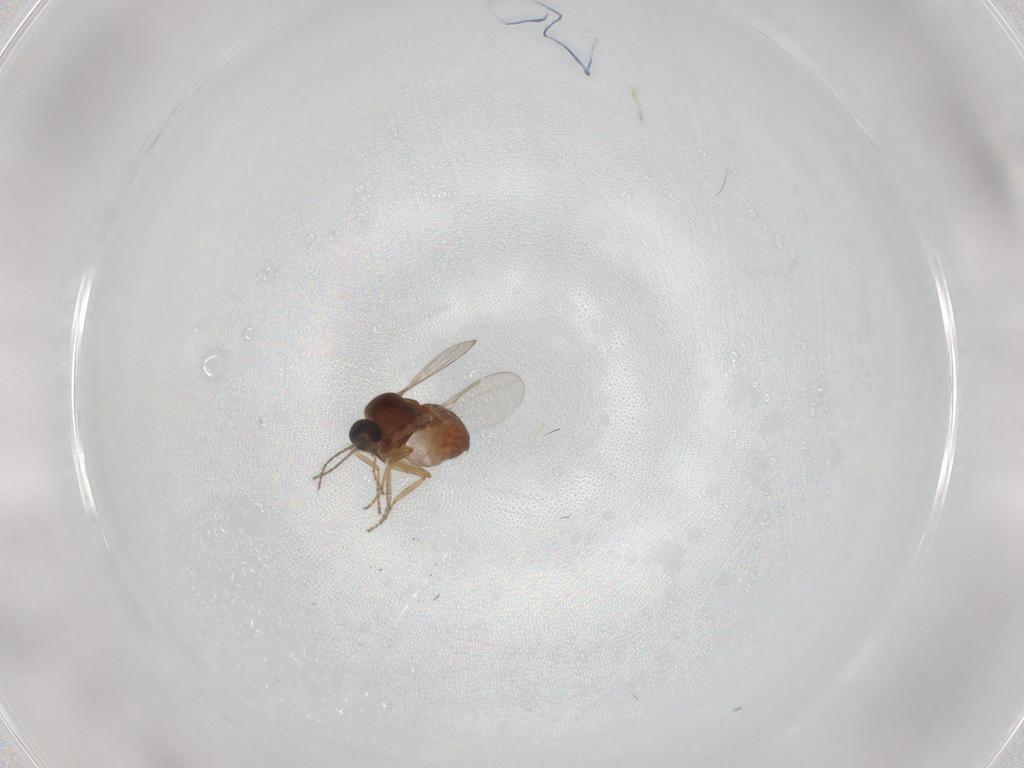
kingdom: Animalia
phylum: Arthropoda
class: Insecta
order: Diptera
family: Ceratopogonidae
